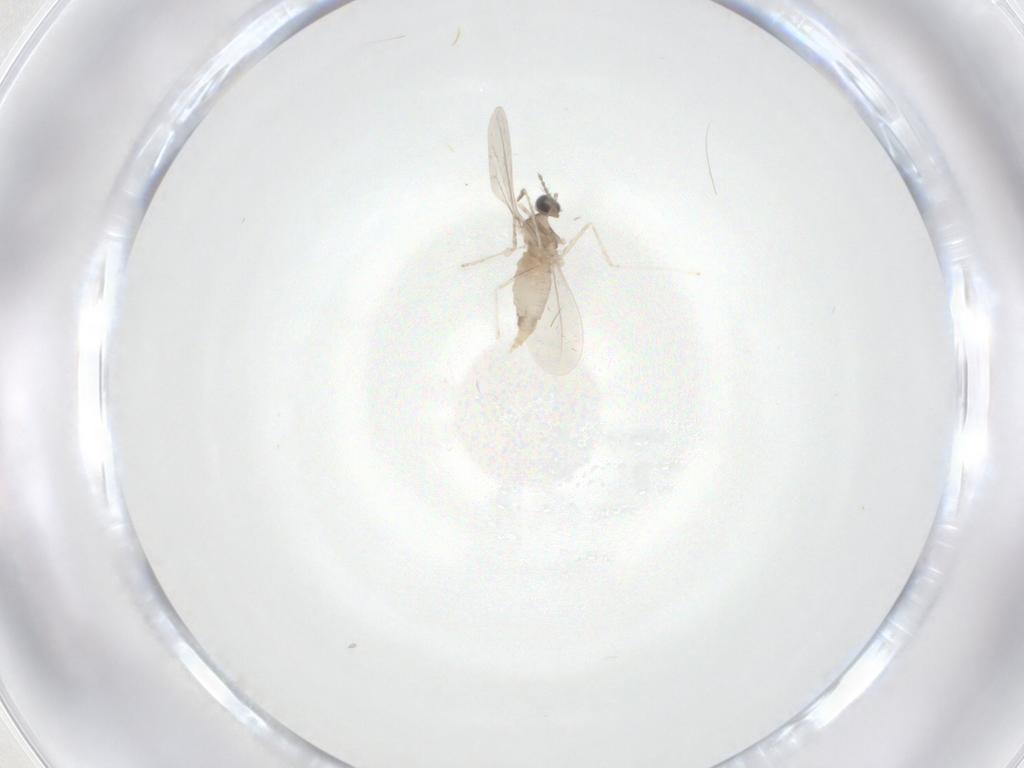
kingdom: Animalia
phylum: Arthropoda
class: Insecta
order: Diptera
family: Cecidomyiidae
